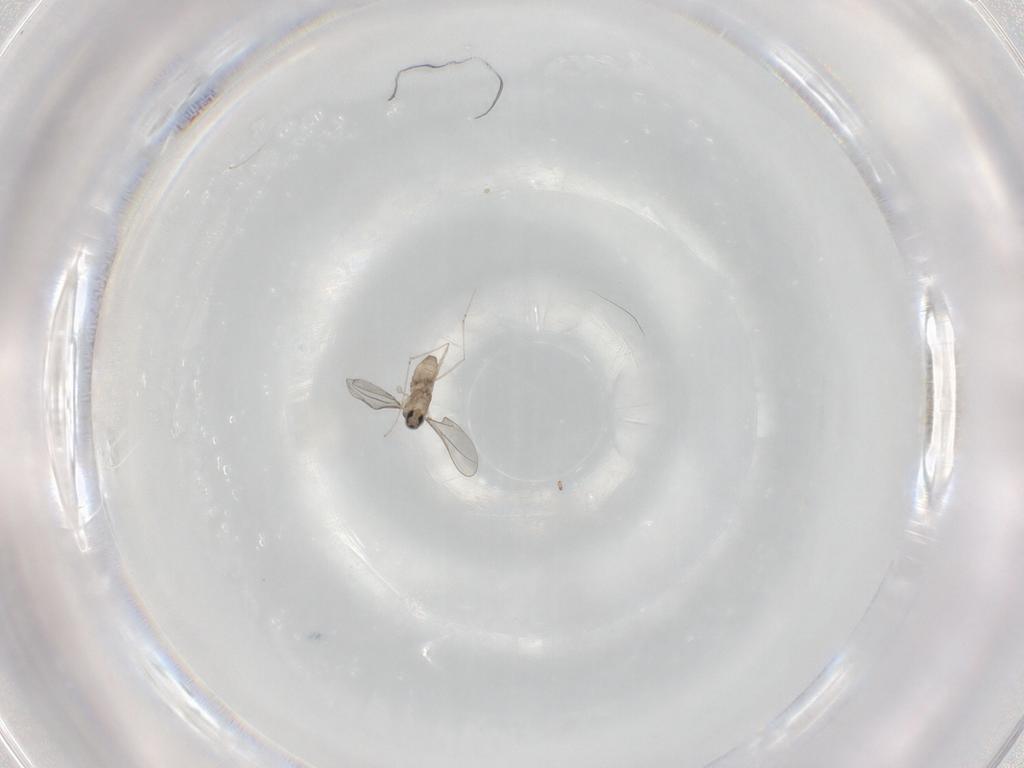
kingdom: Animalia
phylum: Arthropoda
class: Insecta
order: Diptera
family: Cecidomyiidae
